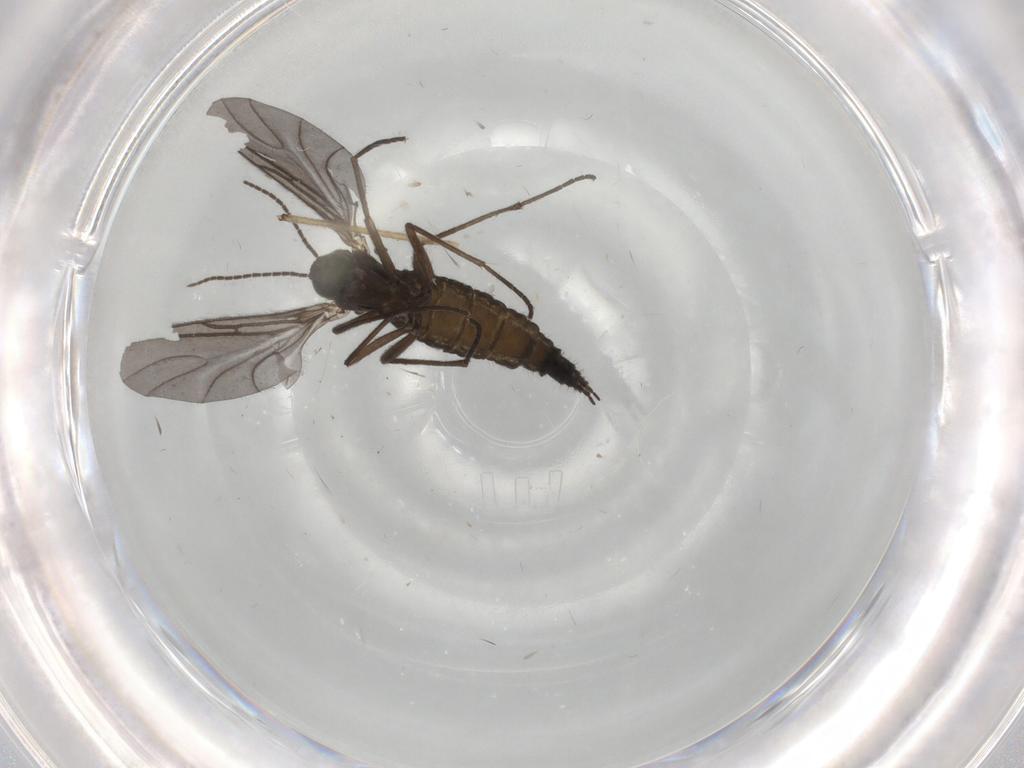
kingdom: Animalia
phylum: Arthropoda
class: Insecta
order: Diptera
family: Sciaridae
